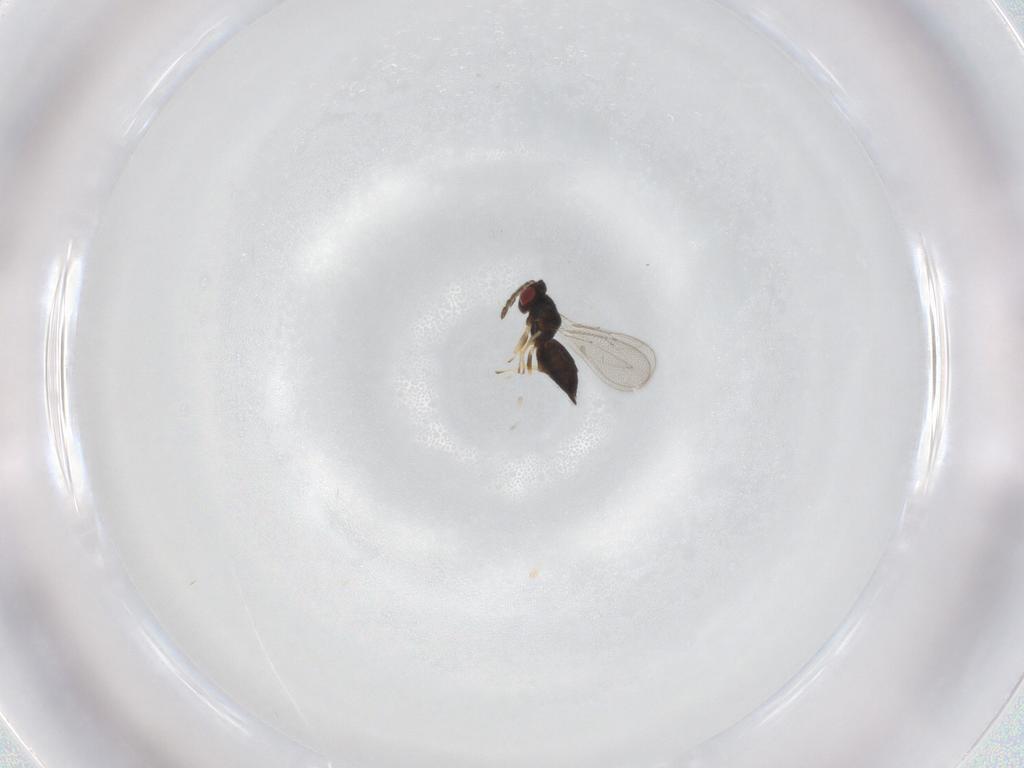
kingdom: Animalia
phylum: Arthropoda
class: Insecta
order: Hymenoptera
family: Eulophidae
